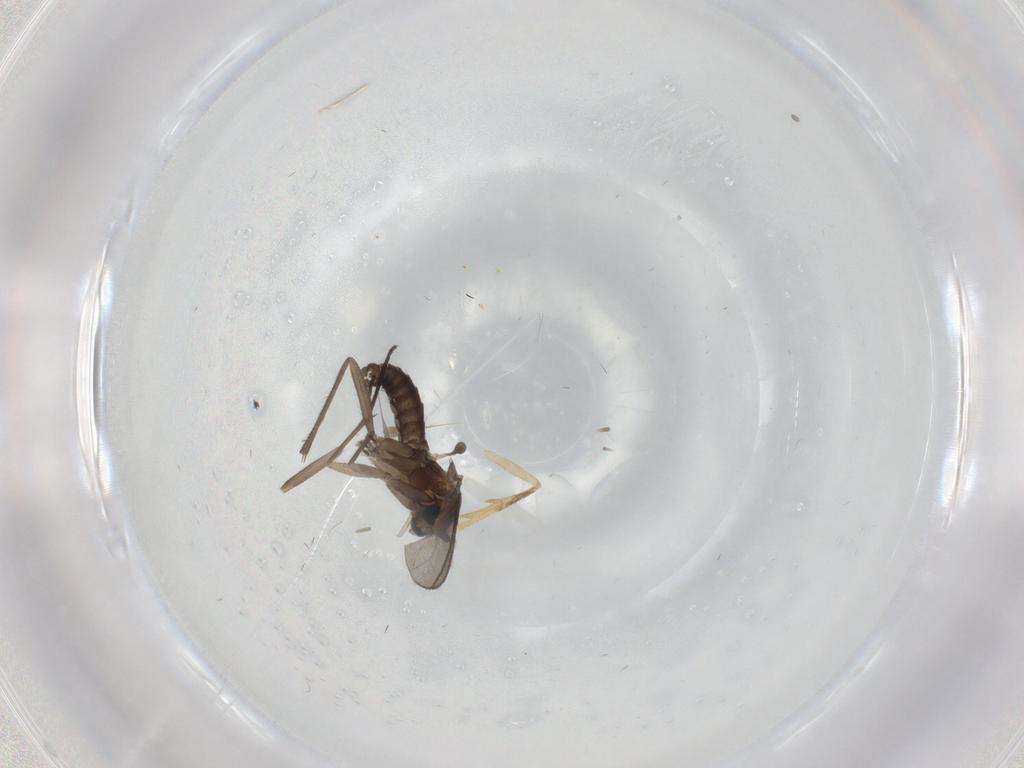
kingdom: Animalia
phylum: Arthropoda
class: Insecta
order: Diptera
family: Sciaridae
